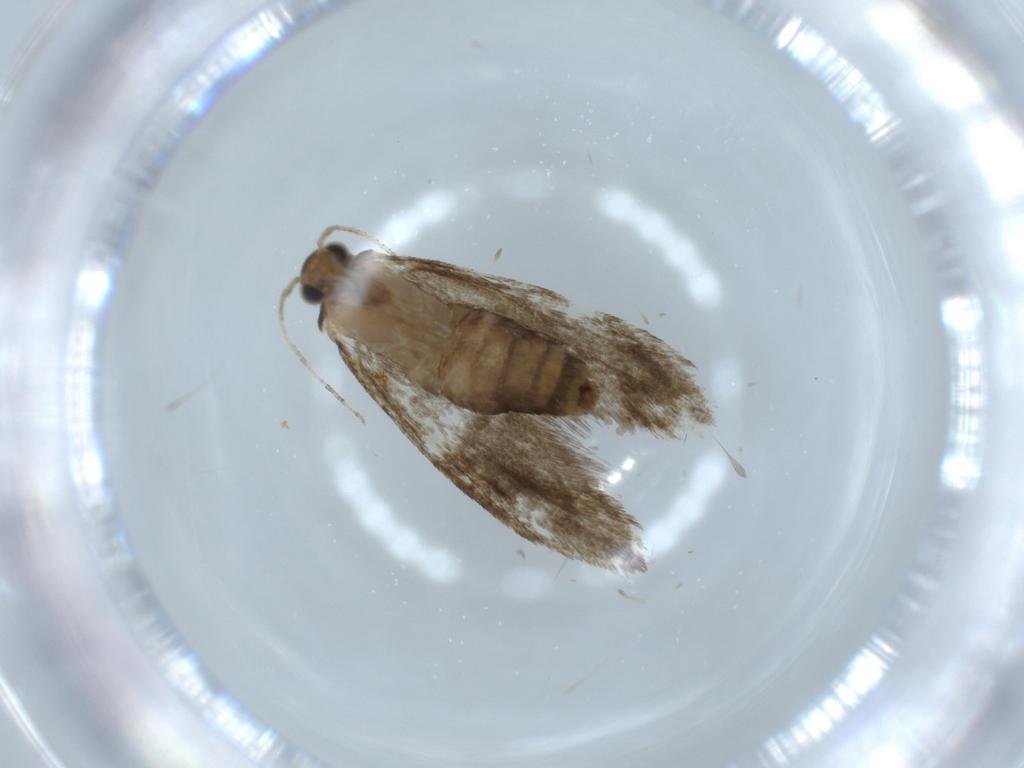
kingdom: Animalia
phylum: Arthropoda
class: Insecta
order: Lepidoptera
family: Tineidae
